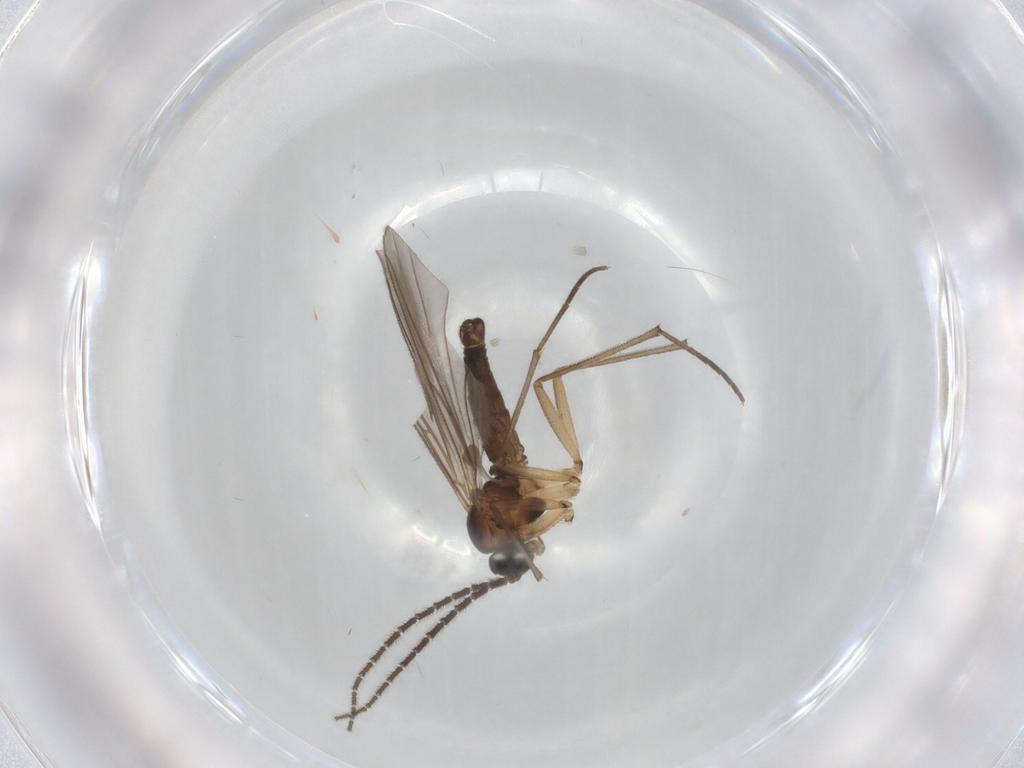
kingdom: Animalia
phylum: Arthropoda
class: Insecta
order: Diptera
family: Sciaridae
